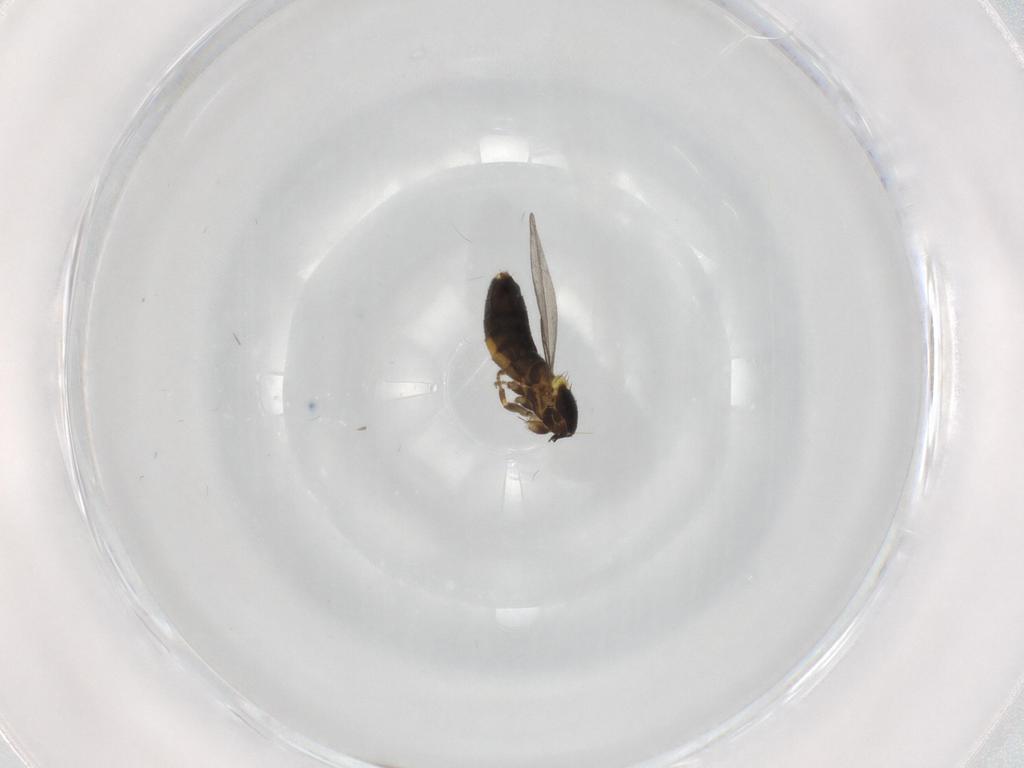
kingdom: Animalia
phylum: Arthropoda
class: Insecta
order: Diptera
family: Scatopsidae
